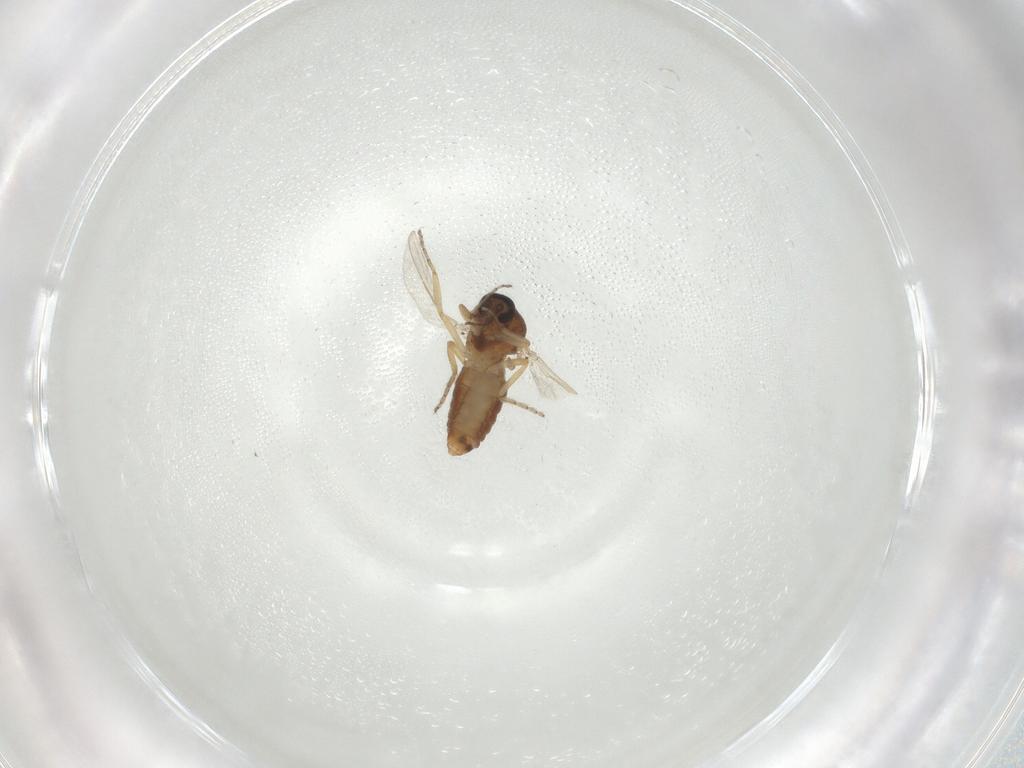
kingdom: Animalia
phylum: Arthropoda
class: Insecta
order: Diptera
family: Ceratopogonidae
